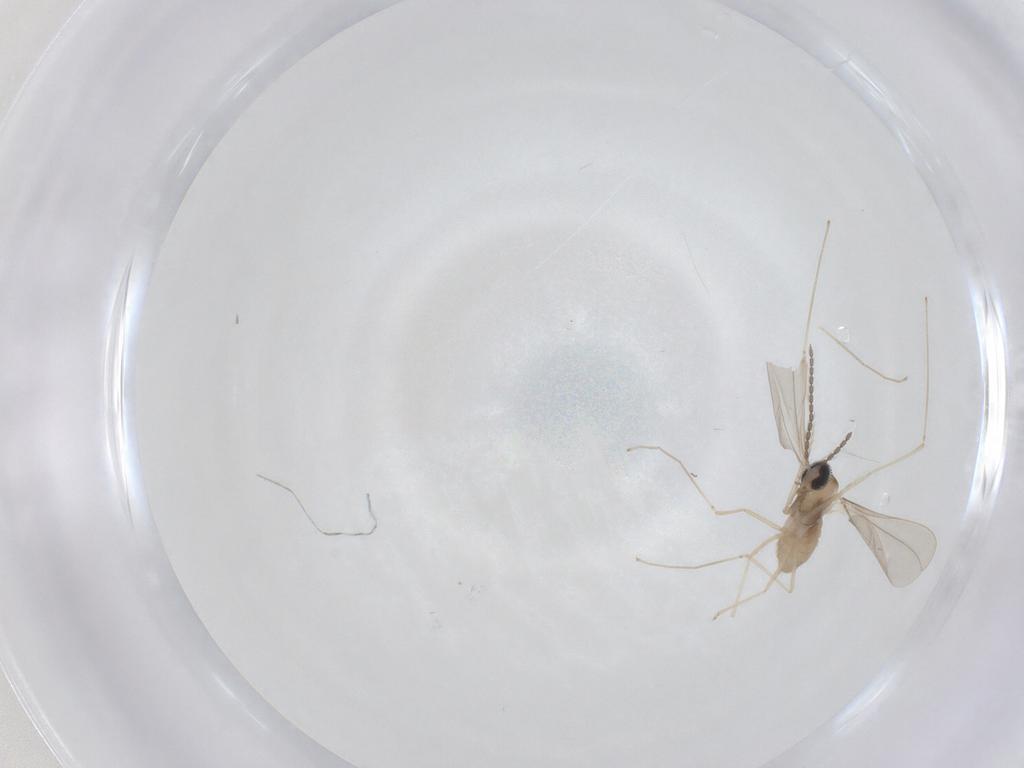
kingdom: Animalia
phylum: Arthropoda
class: Insecta
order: Diptera
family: Cecidomyiidae
